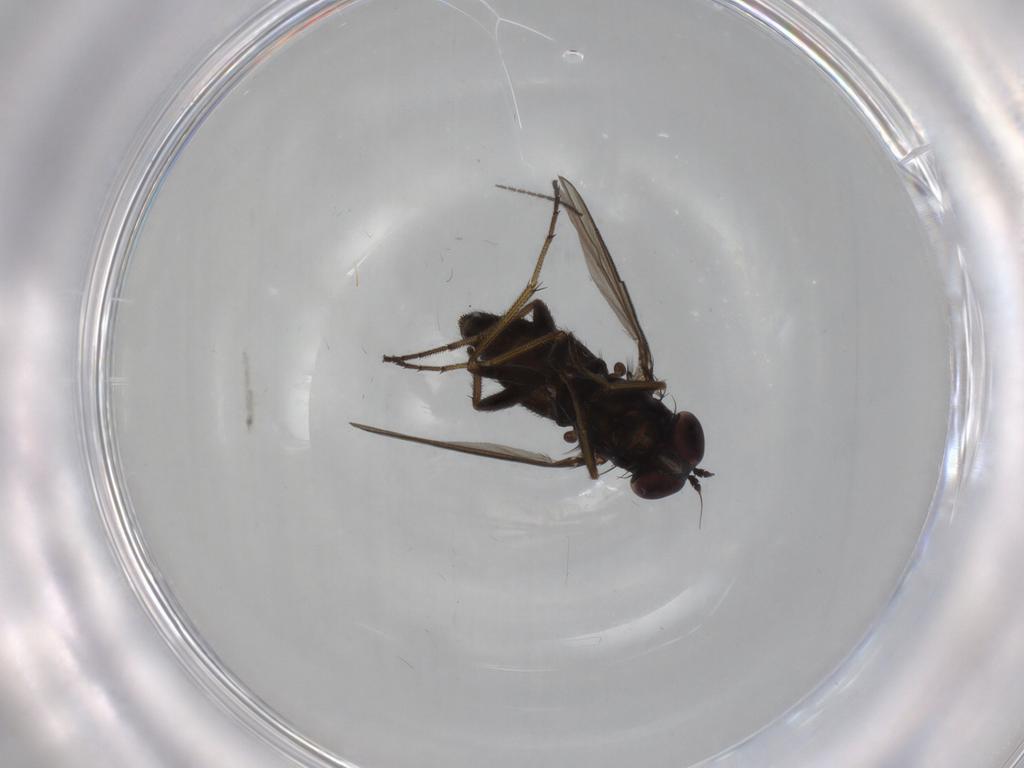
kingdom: Animalia
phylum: Arthropoda
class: Insecta
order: Diptera
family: Dolichopodidae
